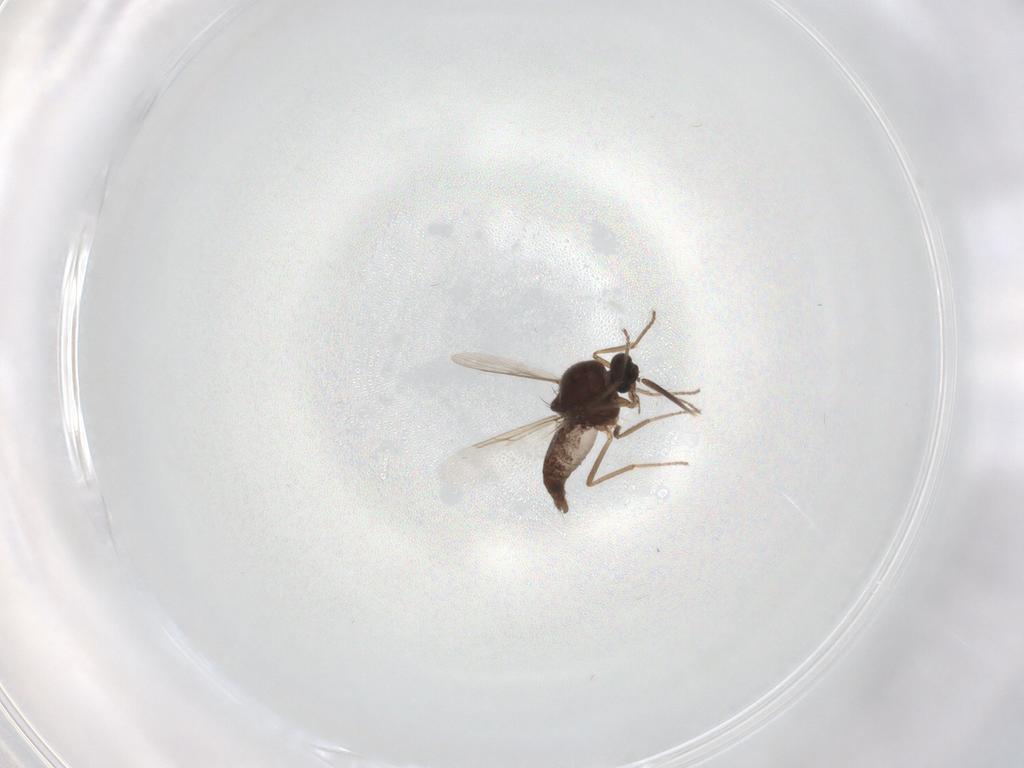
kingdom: Animalia
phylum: Arthropoda
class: Insecta
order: Diptera
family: Ceratopogonidae
